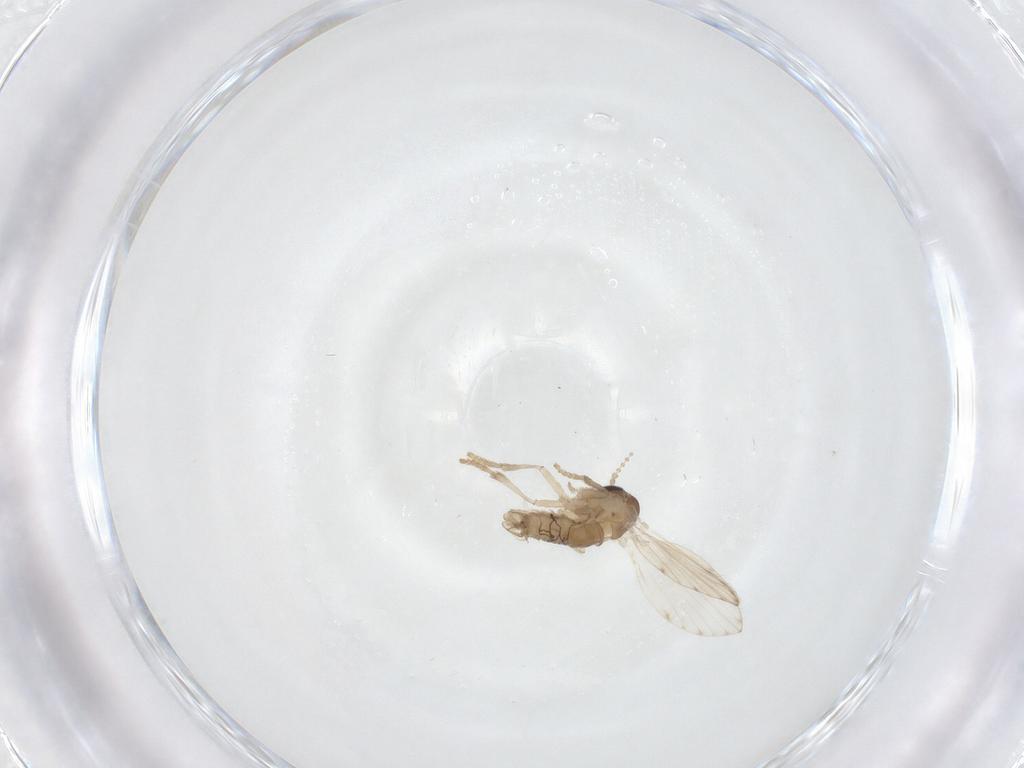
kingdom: Animalia
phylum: Arthropoda
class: Insecta
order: Diptera
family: Psychodidae
